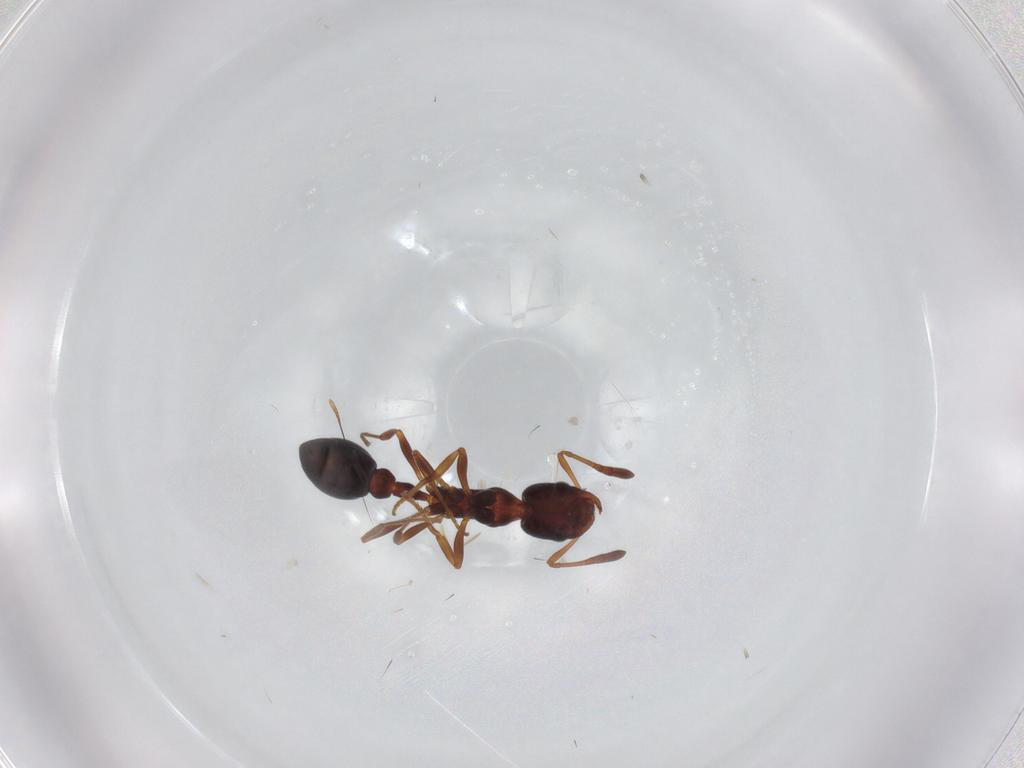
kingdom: Animalia
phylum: Arthropoda
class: Insecta
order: Hymenoptera
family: Formicidae
